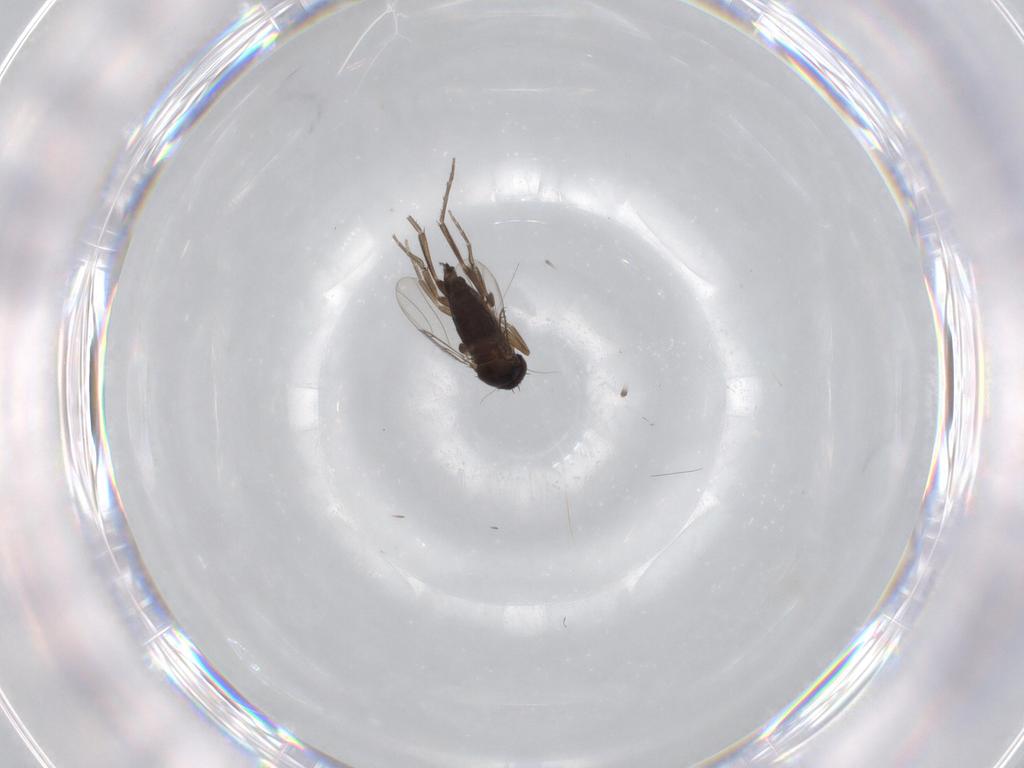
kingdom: Animalia
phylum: Arthropoda
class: Insecta
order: Diptera
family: Phoridae
